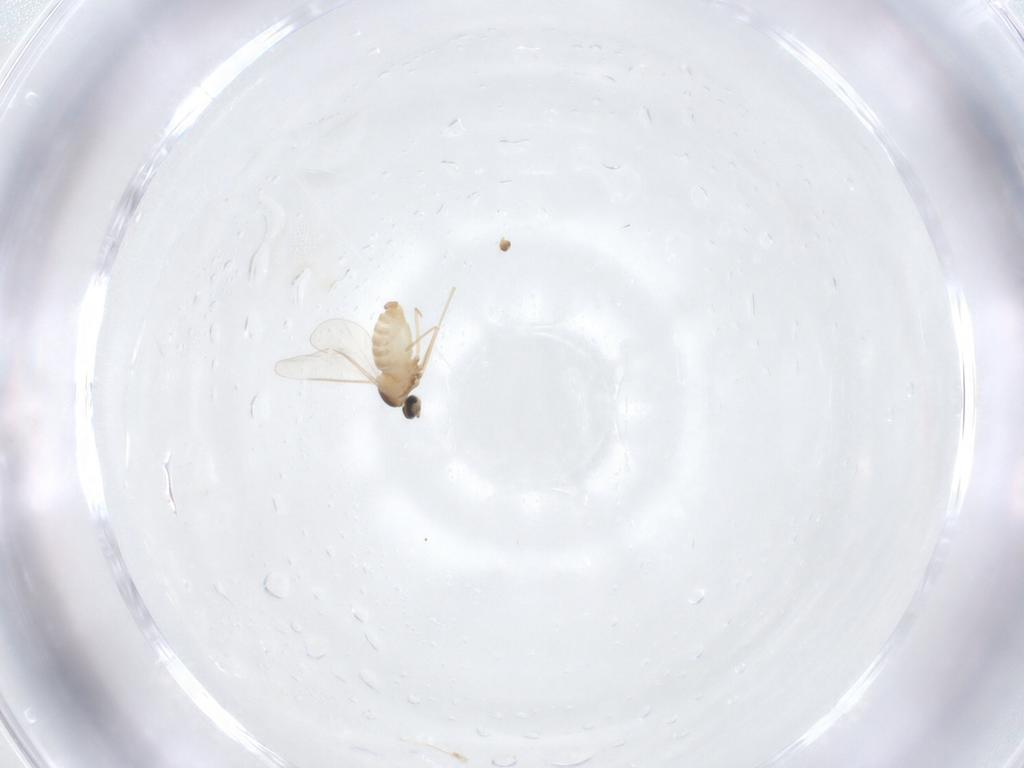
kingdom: Animalia
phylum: Arthropoda
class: Insecta
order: Diptera
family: Cecidomyiidae
